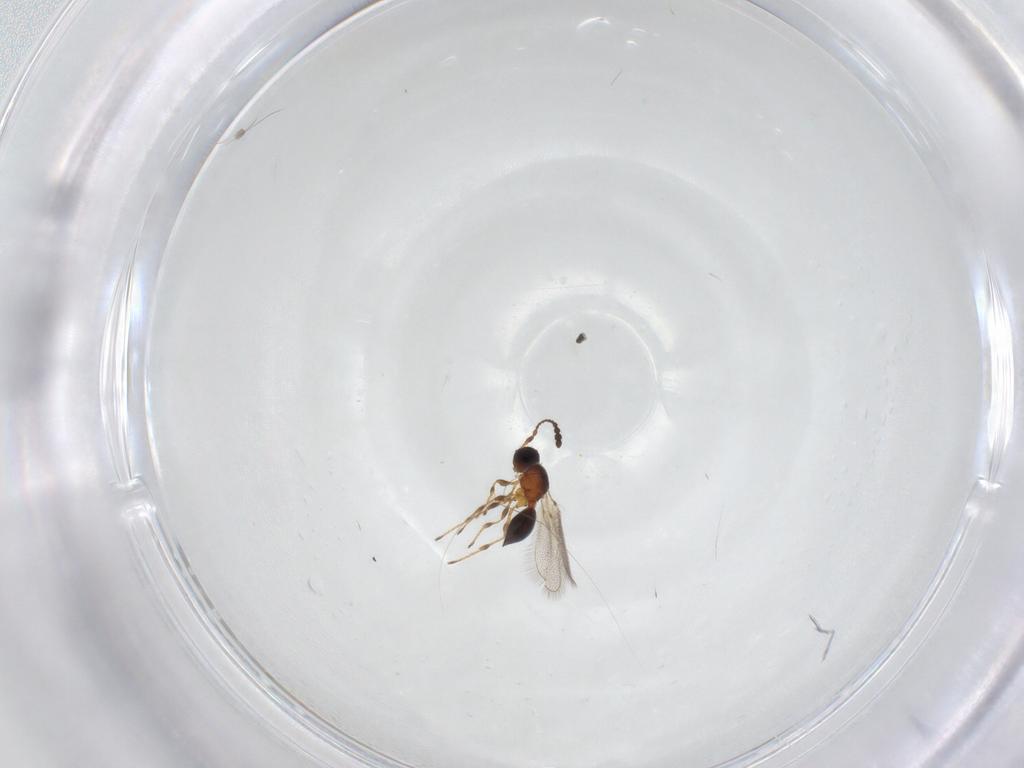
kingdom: Animalia
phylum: Arthropoda
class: Insecta
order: Hymenoptera
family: Diapriidae
